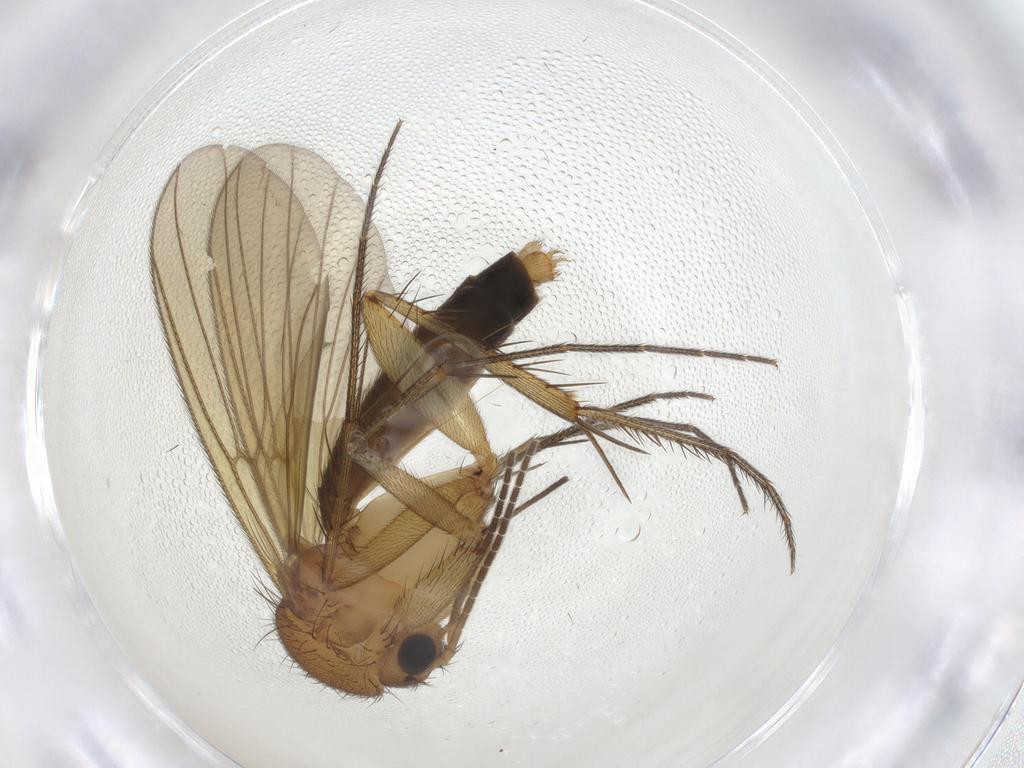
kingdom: Animalia
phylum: Arthropoda
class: Insecta
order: Diptera
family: Mycetophilidae
